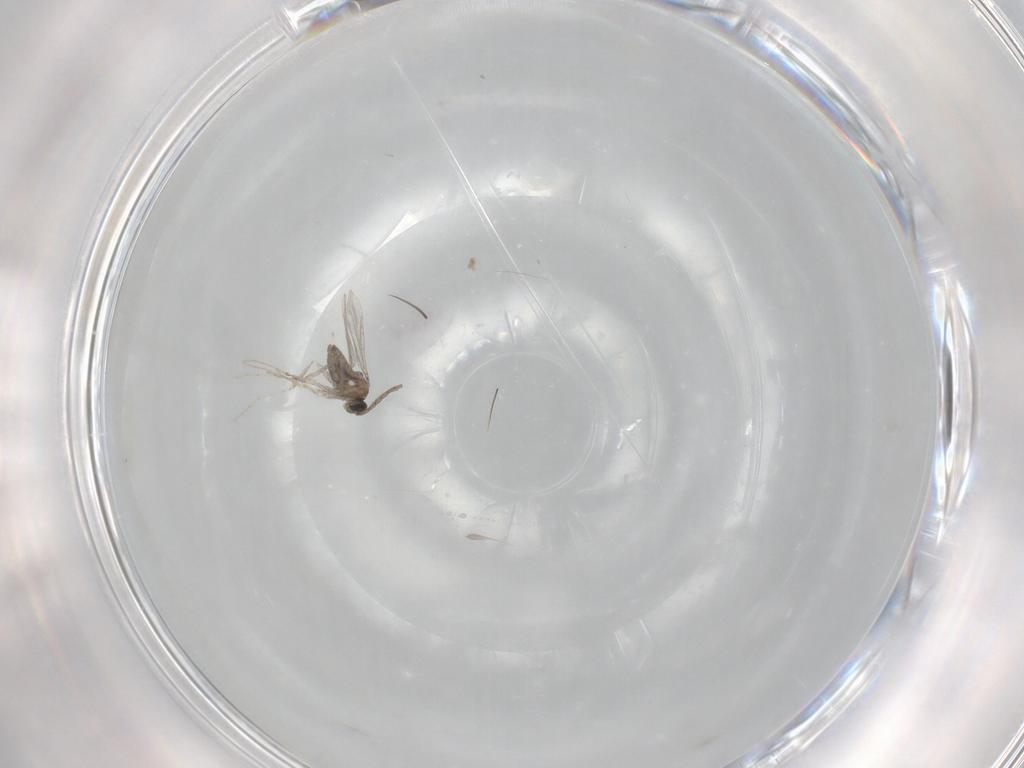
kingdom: Animalia
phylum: Arthropoda
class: Insecta
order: Diptera
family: Cecidomyiidae
